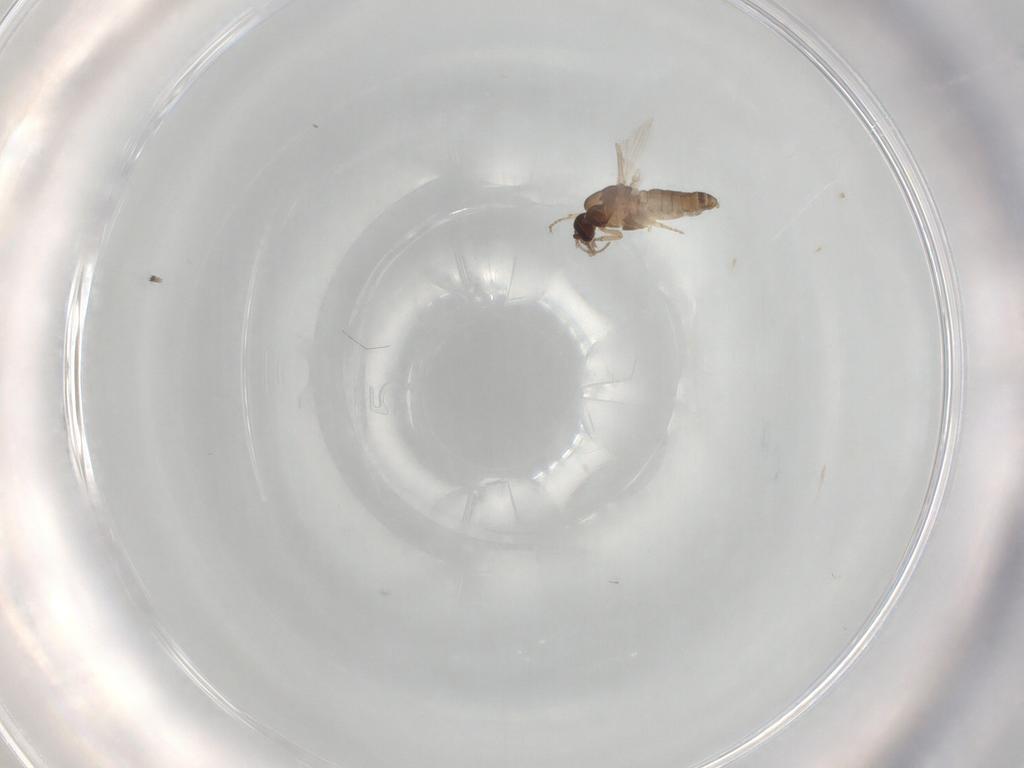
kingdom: Animalia
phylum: Arthropoda
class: Insecta
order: Diptera
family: Ceratopogonidae
